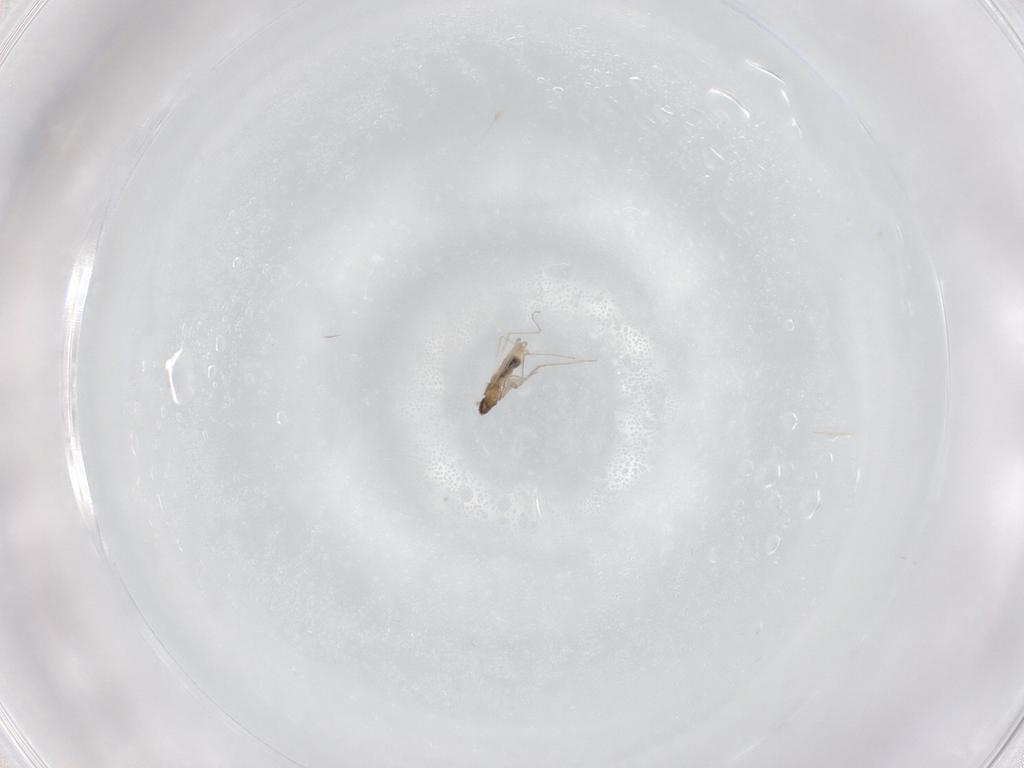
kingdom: Animalia
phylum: Arthropoda
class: Insecta
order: Diptera
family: Cecidomyiidae
